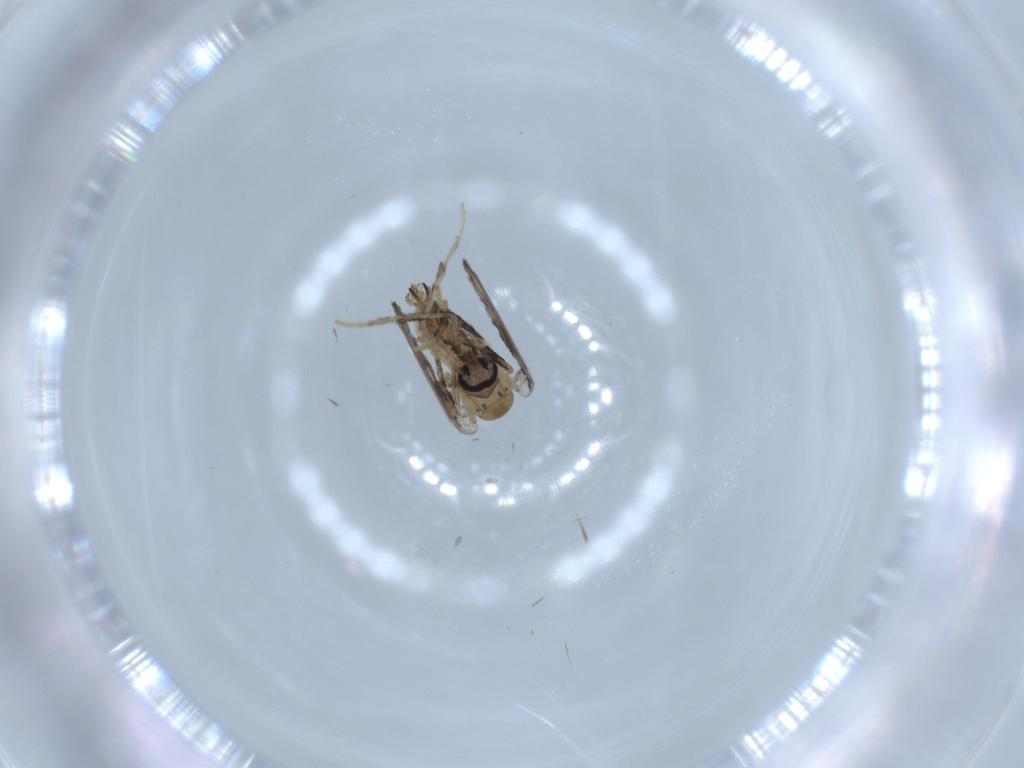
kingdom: Animalia
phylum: Arthropoda
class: Insecta
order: Diptera
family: Psychodidae
